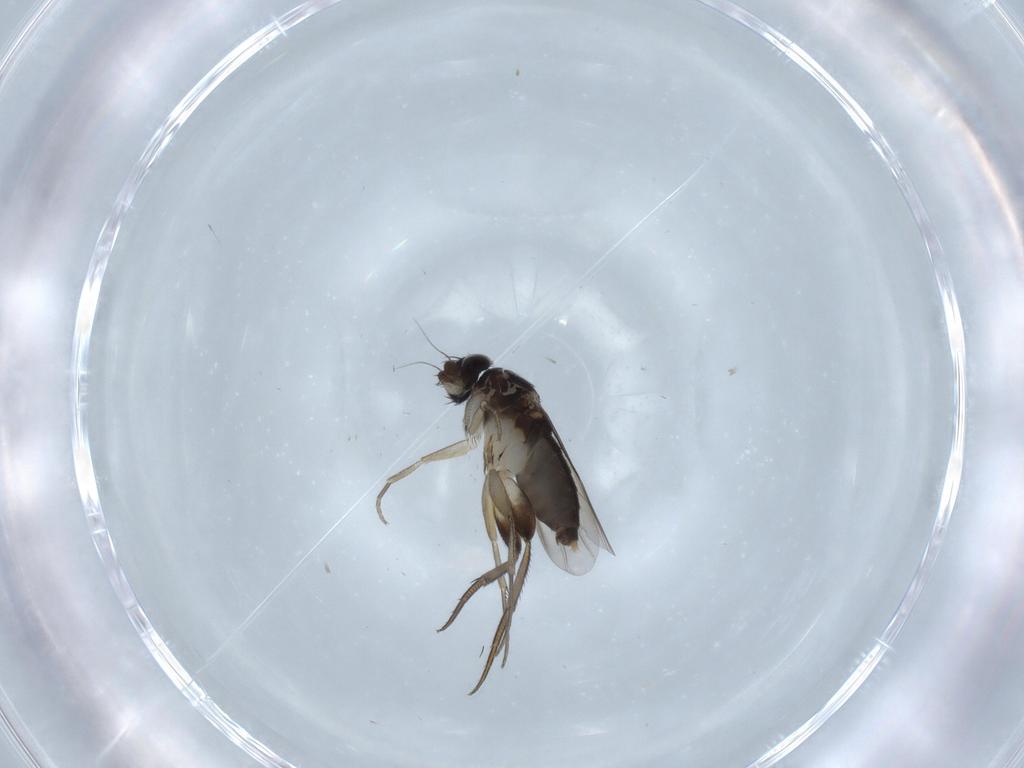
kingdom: Animalia
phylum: Arthropoda
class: Insecta
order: Diptera
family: Phoridae
